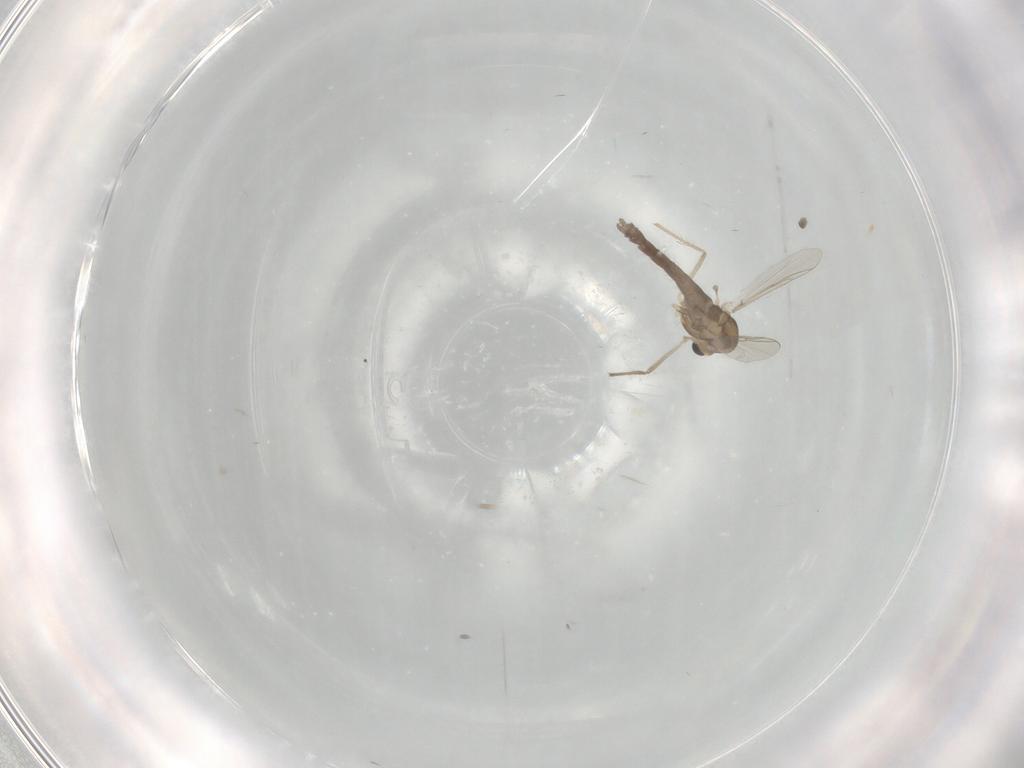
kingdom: Animalia
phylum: Arthropoda
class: Insecta
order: Diptera
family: Chironomidae
